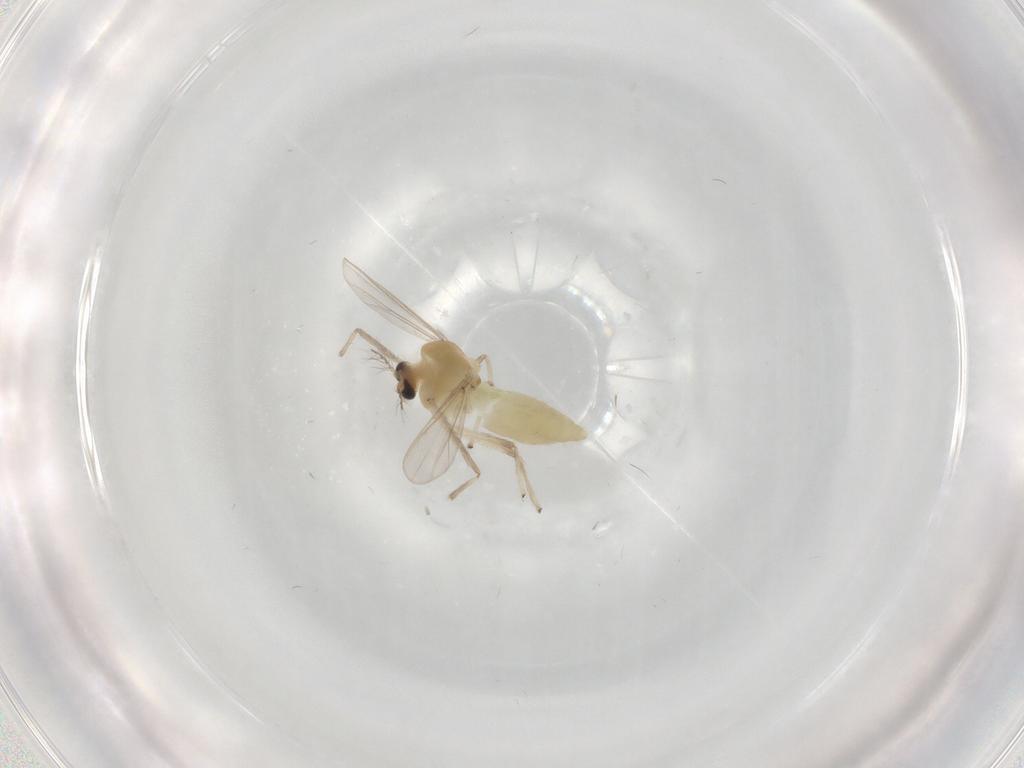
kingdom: Animalia
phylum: Arthropoda
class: Insecta
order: Diptera
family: Chironomidae
